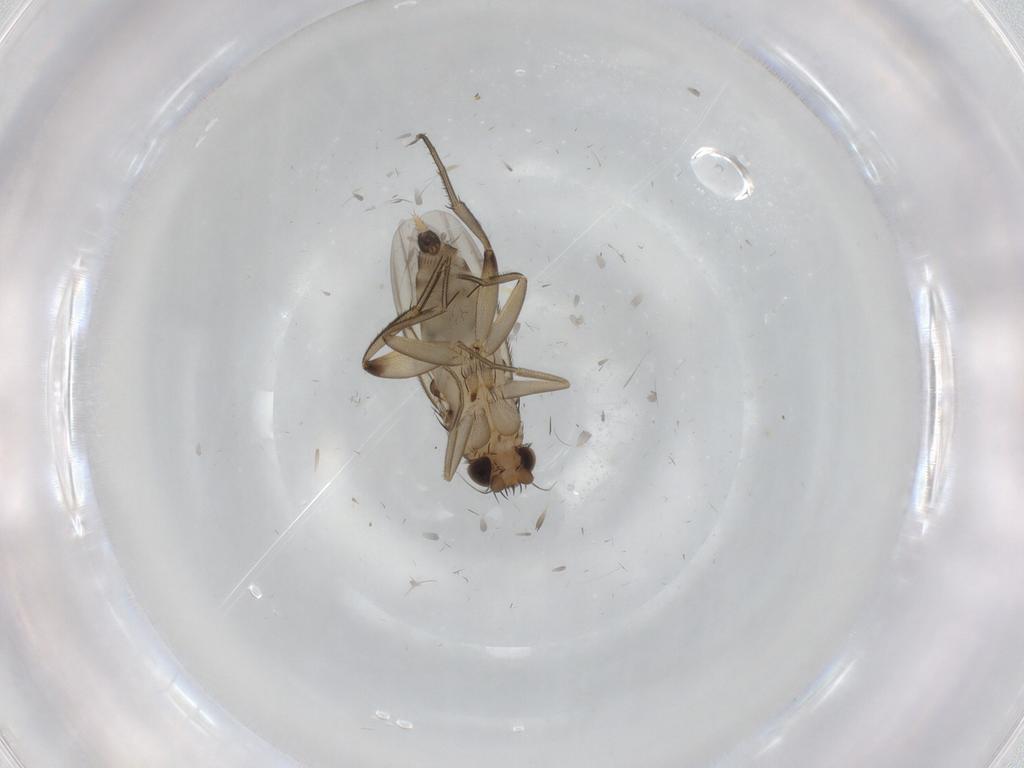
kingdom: Animalia
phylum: Arthropoda
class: Insecta
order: Diptera
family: Cecidomyiidae
